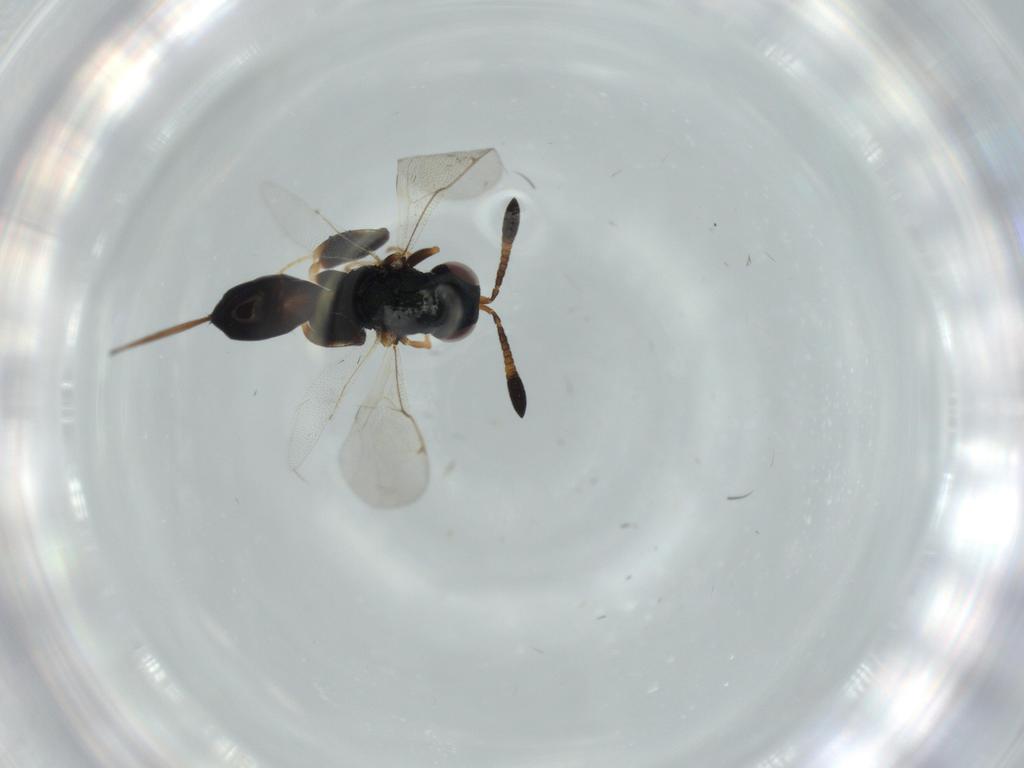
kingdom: Animalia
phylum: Arthropoda
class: Insecta
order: Hymenoptera
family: Torymidae
